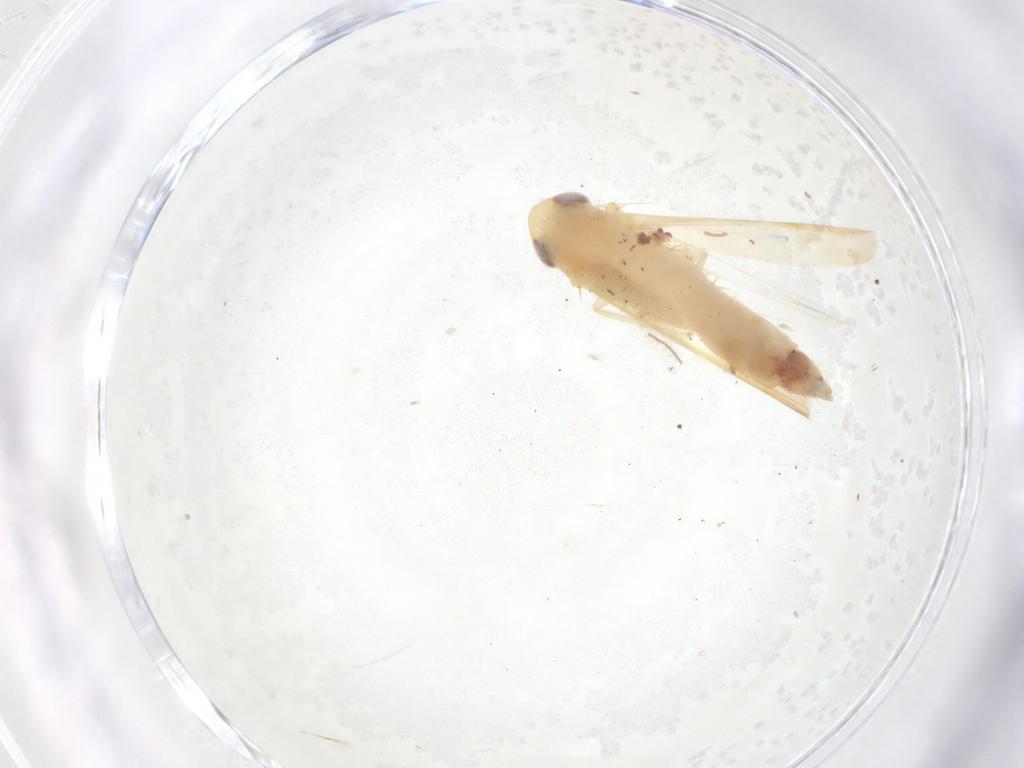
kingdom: Animalia
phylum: Arthropoda
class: Insecta
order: Hemiptera
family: Cicadellidae
